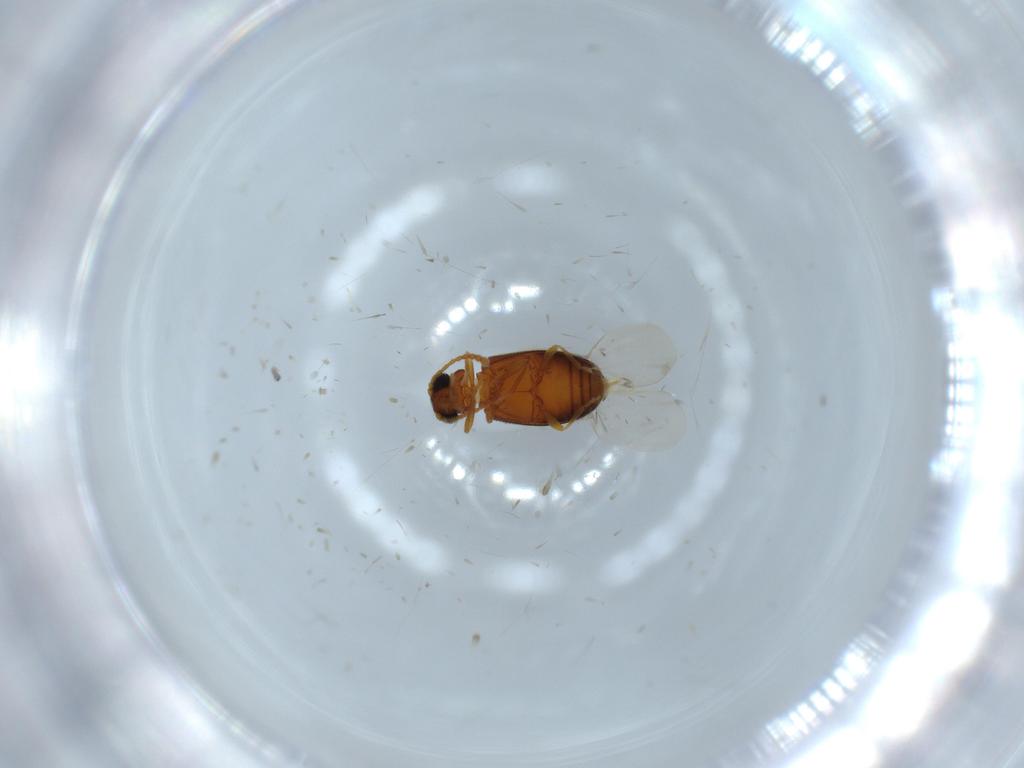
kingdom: Animalia
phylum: Arthropoda
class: Insecta
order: Coleoptera
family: Aderidae
